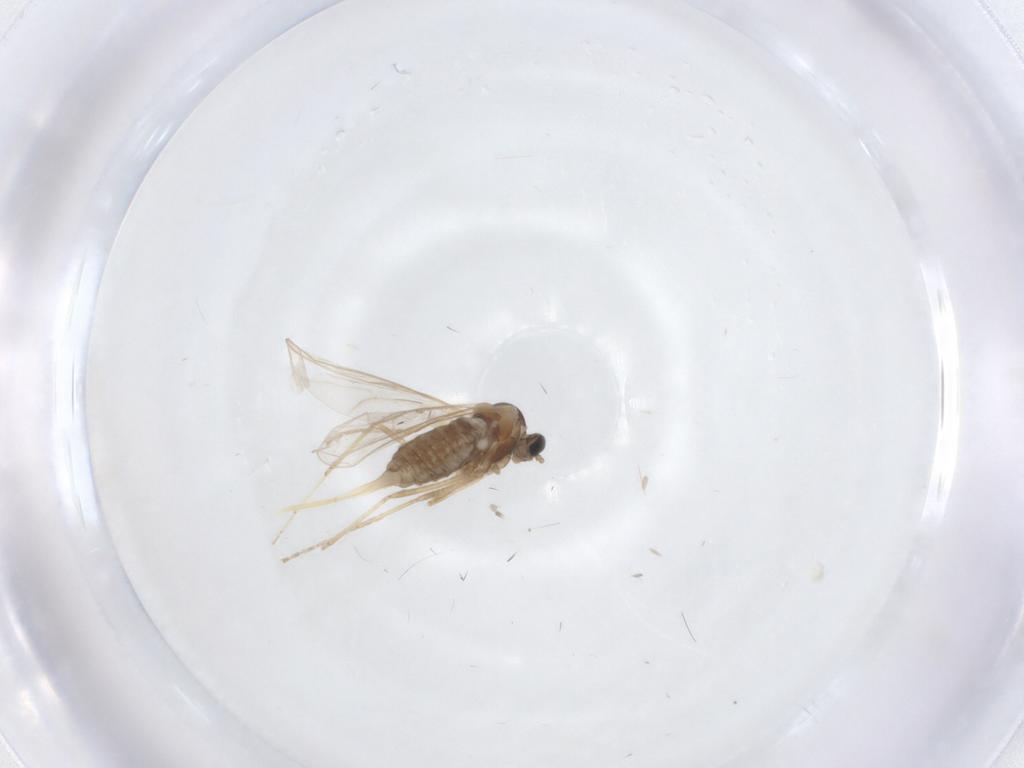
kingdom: Animalia
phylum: Arthropoda
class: Insecta
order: Diptera
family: Cecidomyiidae
